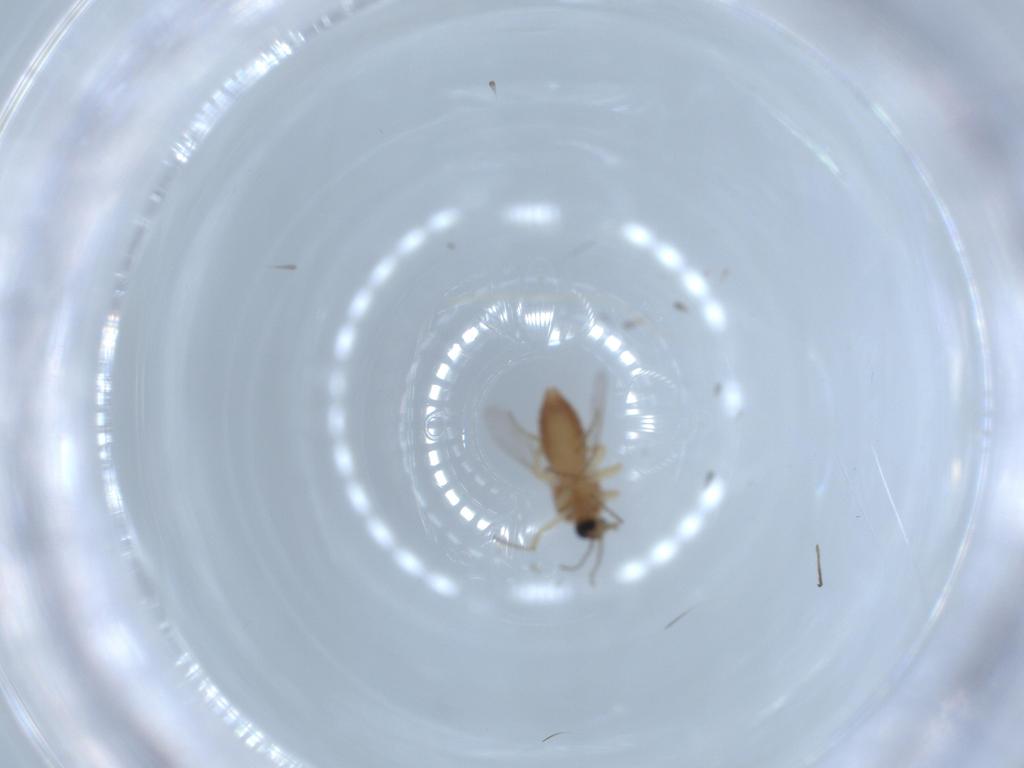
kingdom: Animalia
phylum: Arthropoda
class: Insecta
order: Diptera
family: Ceratopogonidae
